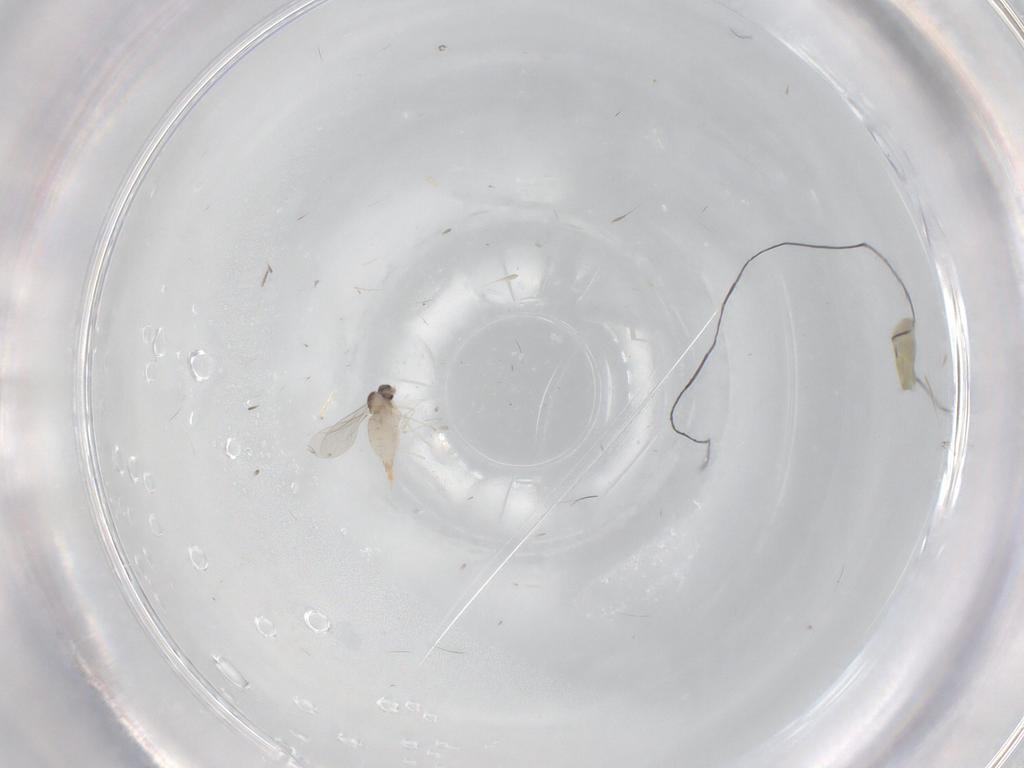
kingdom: Animalia
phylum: Arthropoda
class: Insecta
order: Diptera
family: Cecidomyiidae
